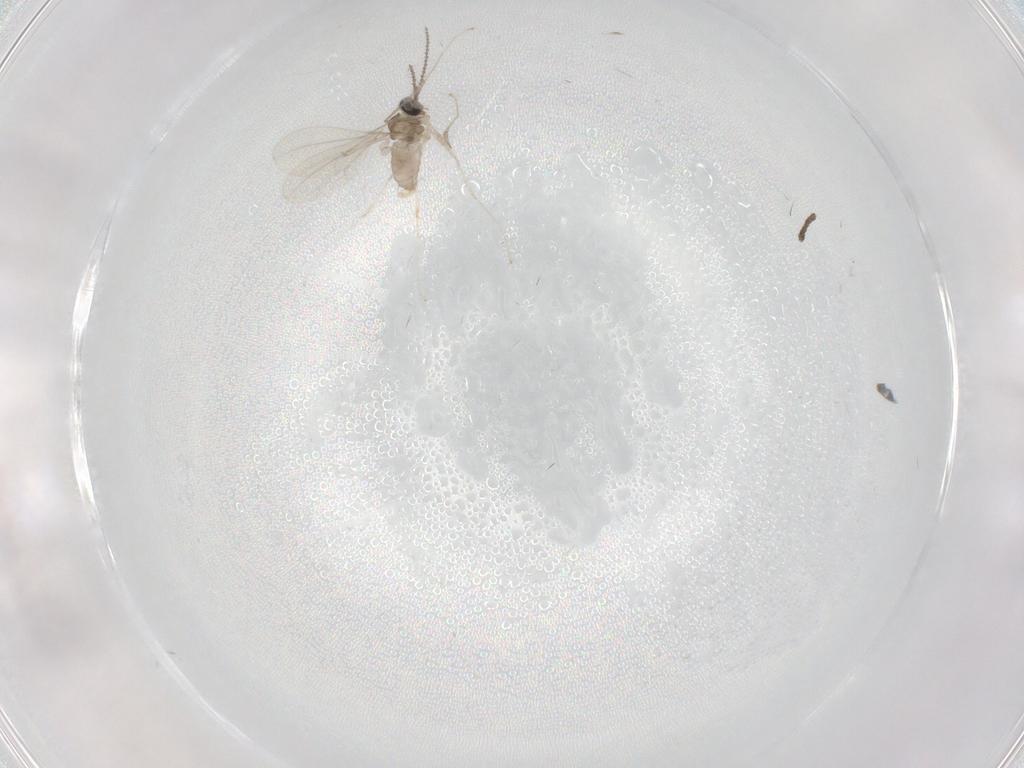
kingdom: Animalia
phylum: Arthropoda
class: Insecta
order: Diptera
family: Cecidomyiidae
